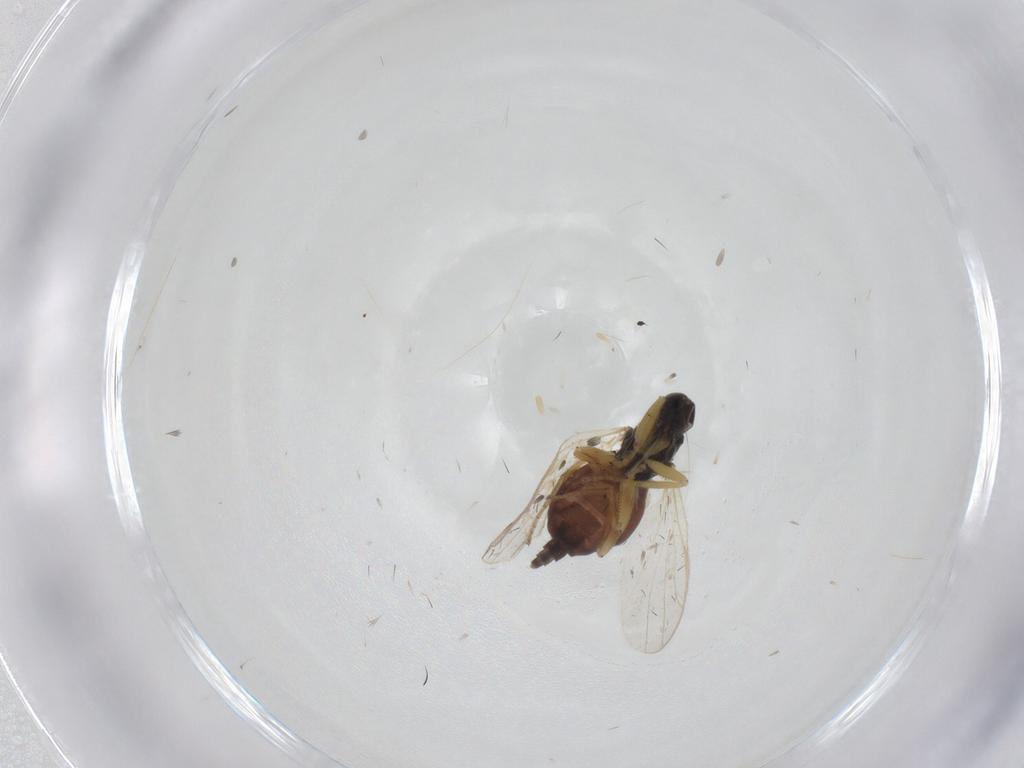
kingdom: Animalia
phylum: Arthropoda
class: Insecta
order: Diptera
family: Hybotidae
